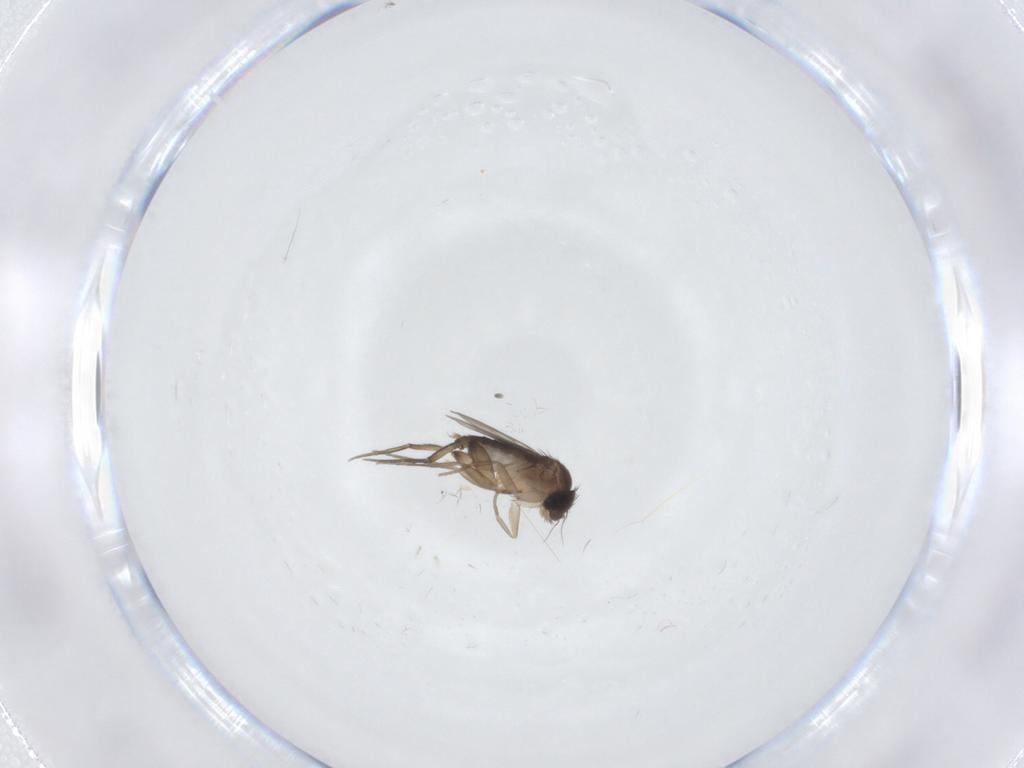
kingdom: Animalia
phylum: Arthropoda
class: Insecta
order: Diptera
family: Phoridae
